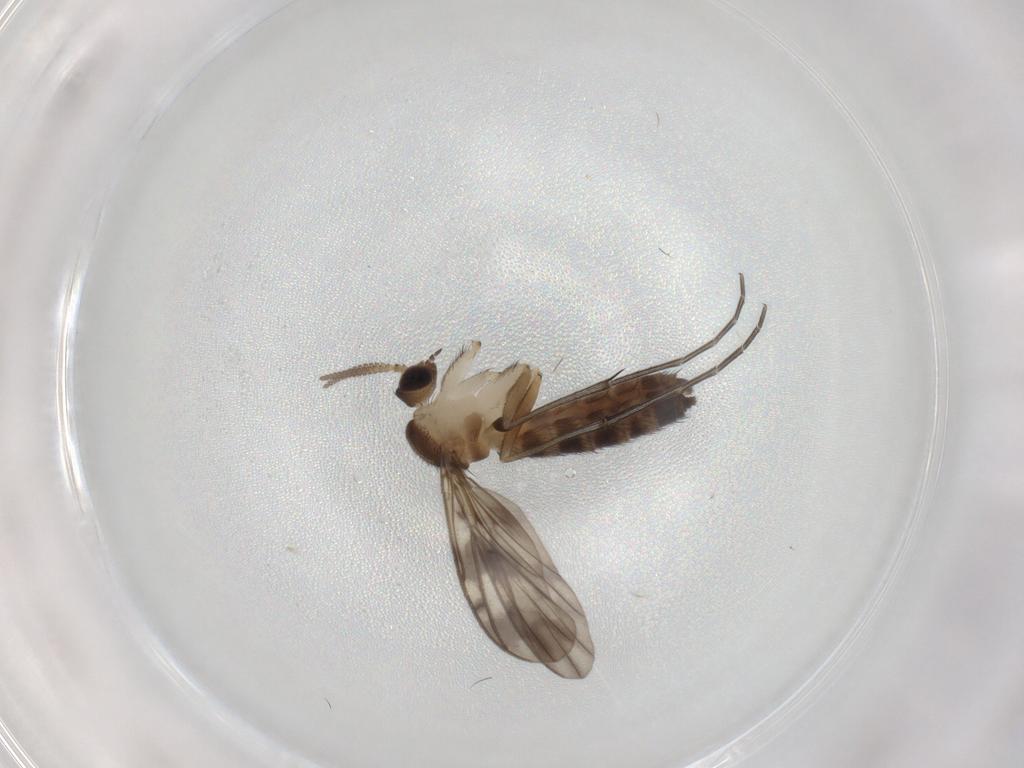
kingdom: Animalia
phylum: Arthropoda
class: Insecta
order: Diptera
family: Keroplatidae
